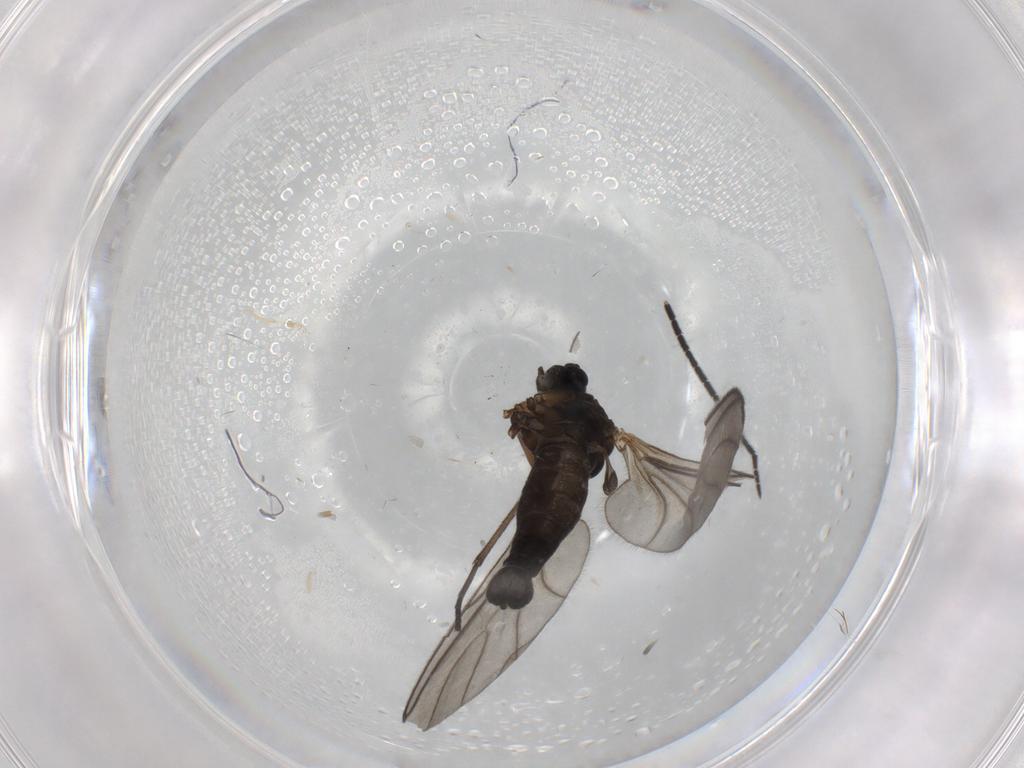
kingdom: Animalia
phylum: Arthropoda
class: Insecta
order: Diptera
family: Sciaridae
